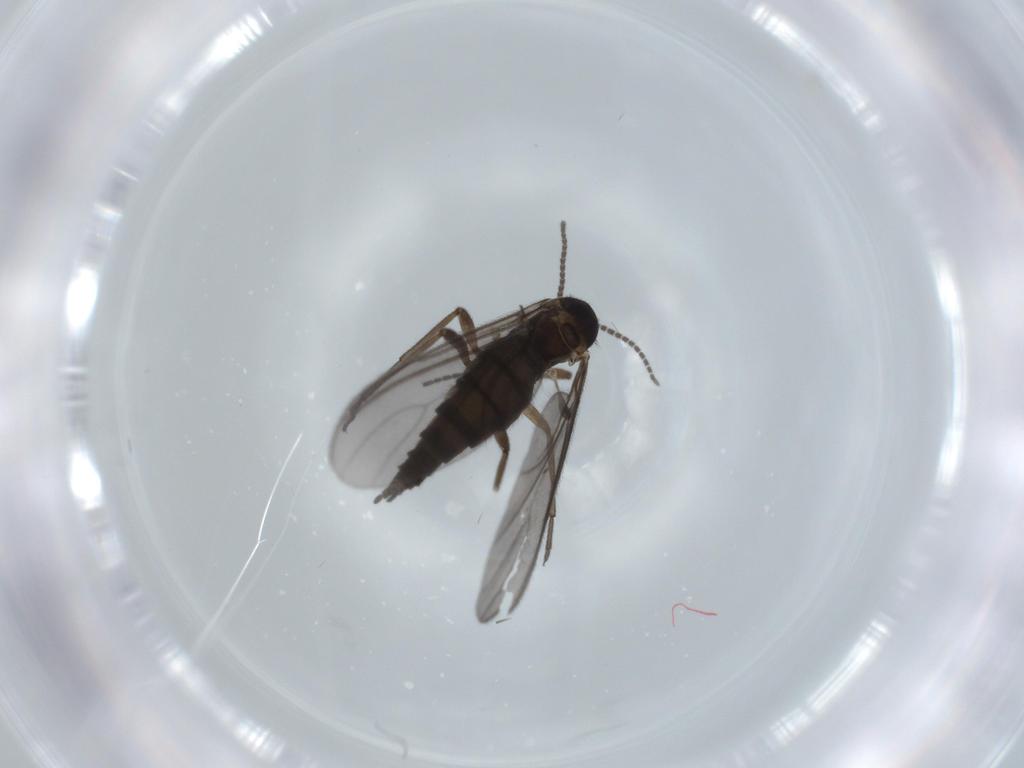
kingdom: Animalia
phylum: Arthropoda
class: Insecta
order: Diptera
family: Sciaridae
